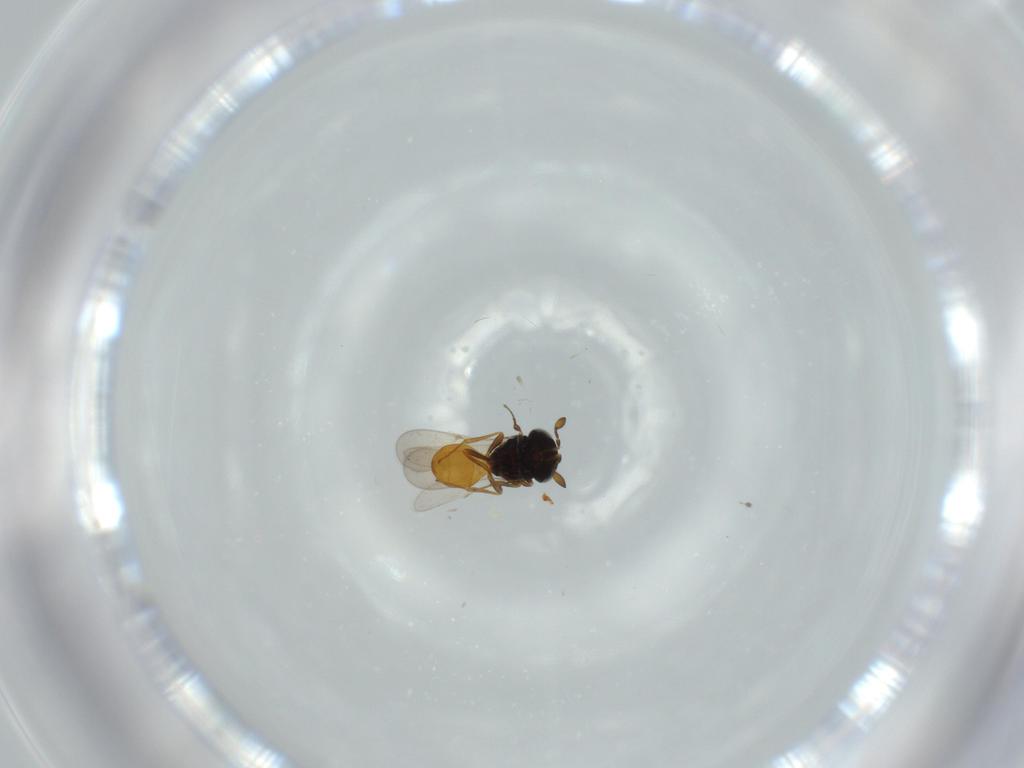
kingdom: Animalia
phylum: Arthropoda
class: Insecta
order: Hymenoptera
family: Scelionidae
